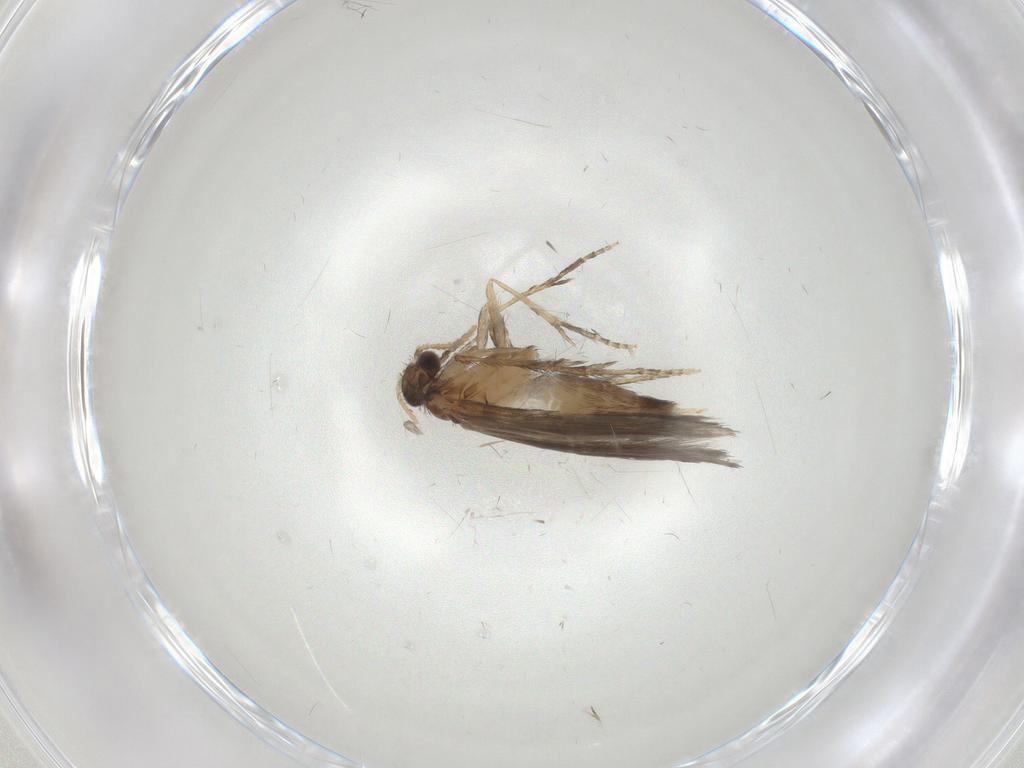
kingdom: Animalia
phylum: Arthropoda
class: Insecta
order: Trichoptera
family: Hydroptilidae
